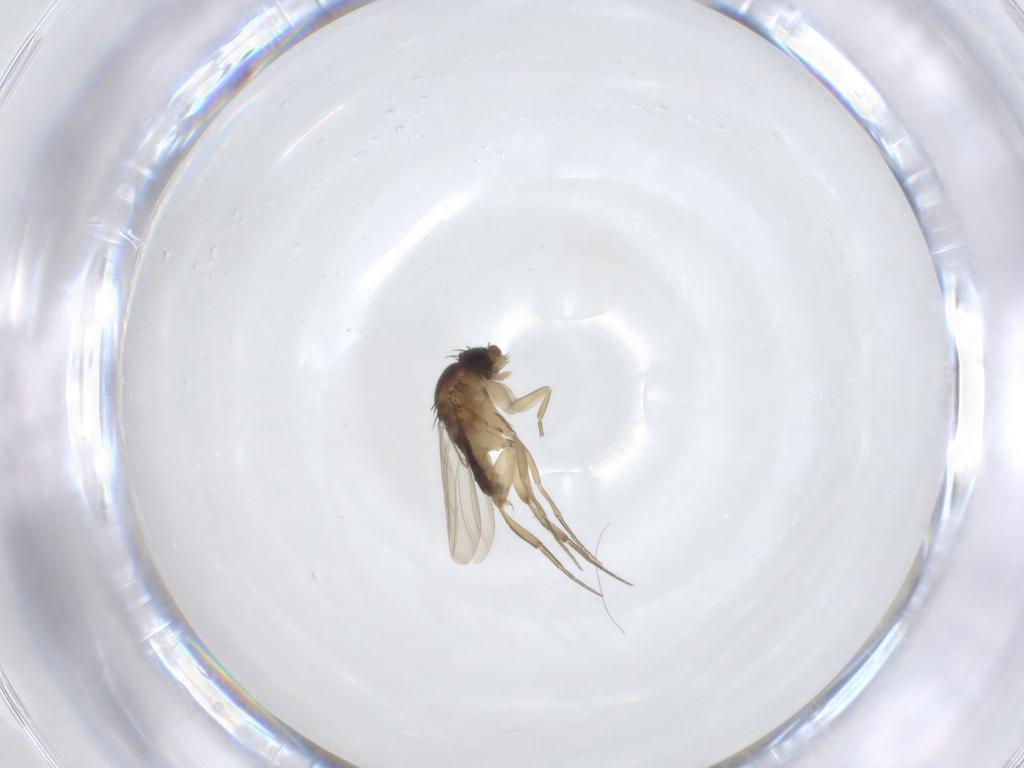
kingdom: Animalia
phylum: Arthropoda
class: Insecta
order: Diptera
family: Phoridae
